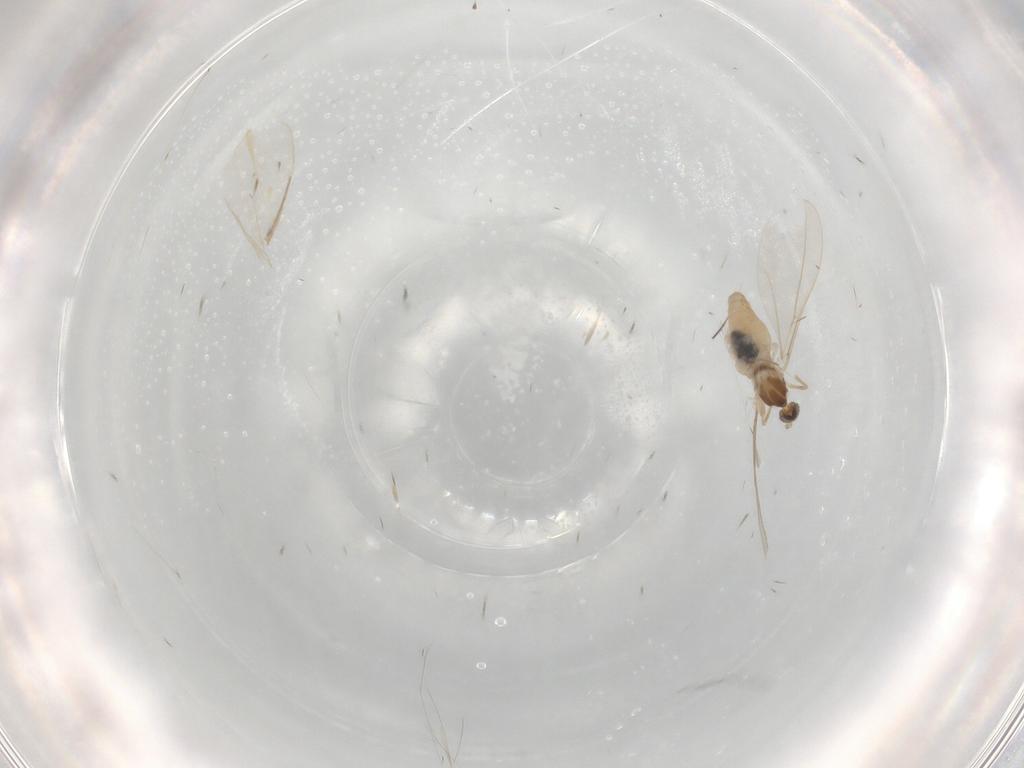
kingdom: Animalia
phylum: Arthropoda
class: Insecta
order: Diptera
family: Cecidomyiidae
